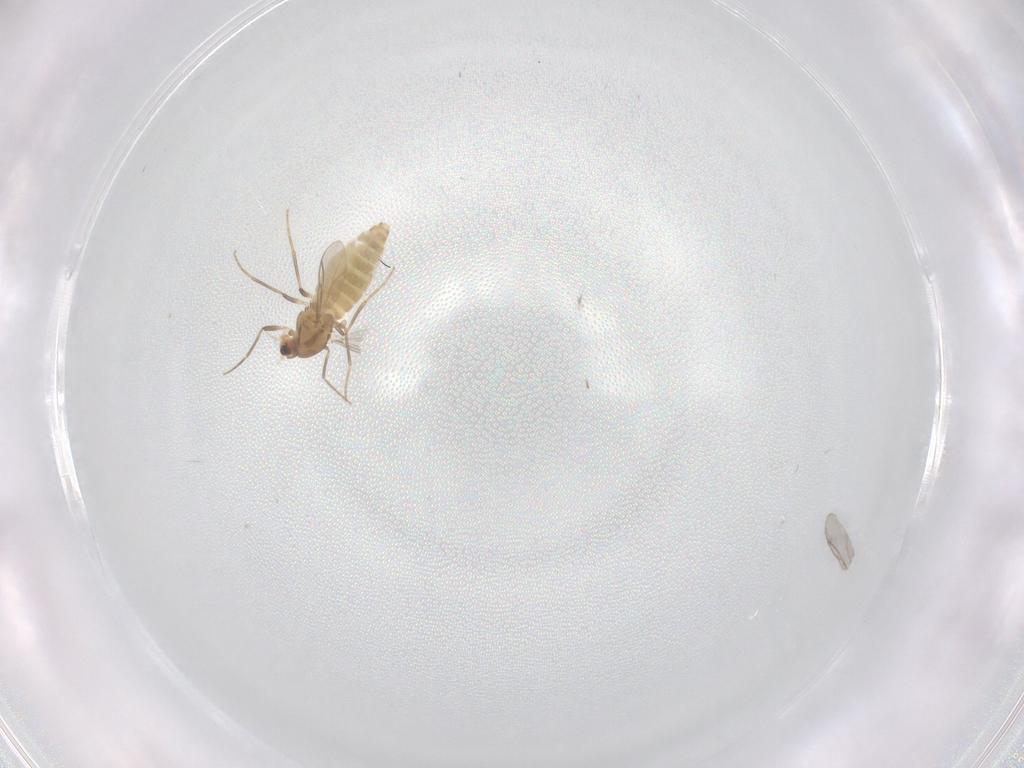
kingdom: Animalia
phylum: Arthropoda
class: Insecta
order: Diptera
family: Chironomidae
